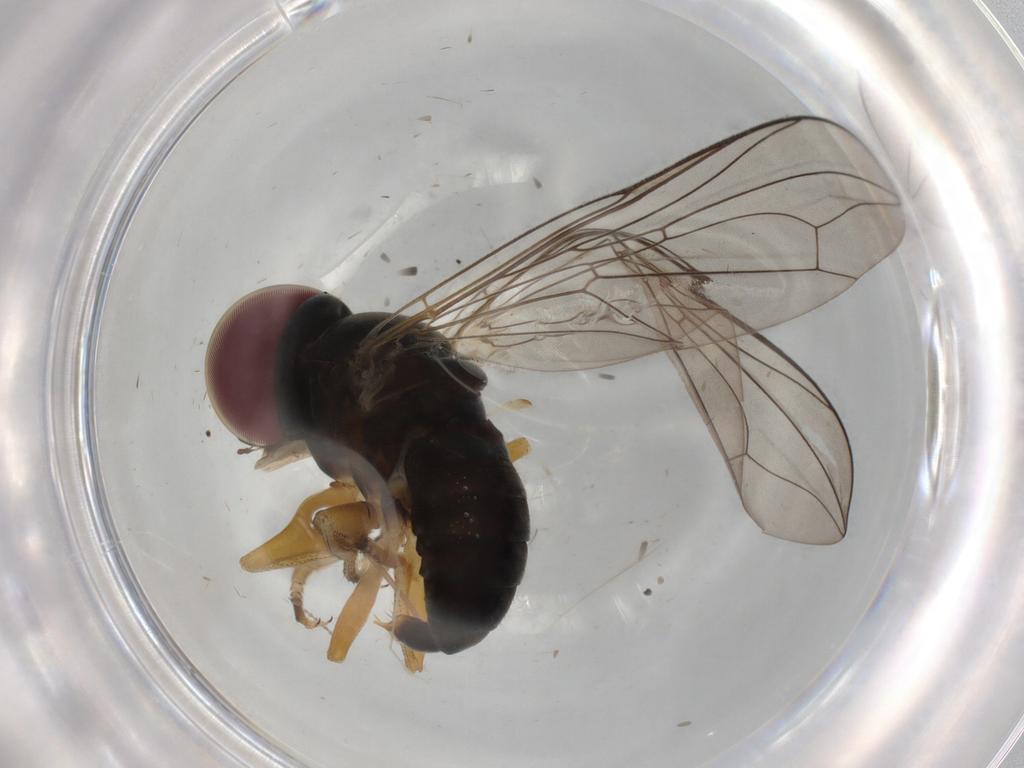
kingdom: Animalia
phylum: Arthropoda
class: Insecta
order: Diptera
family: Pipunculidae
